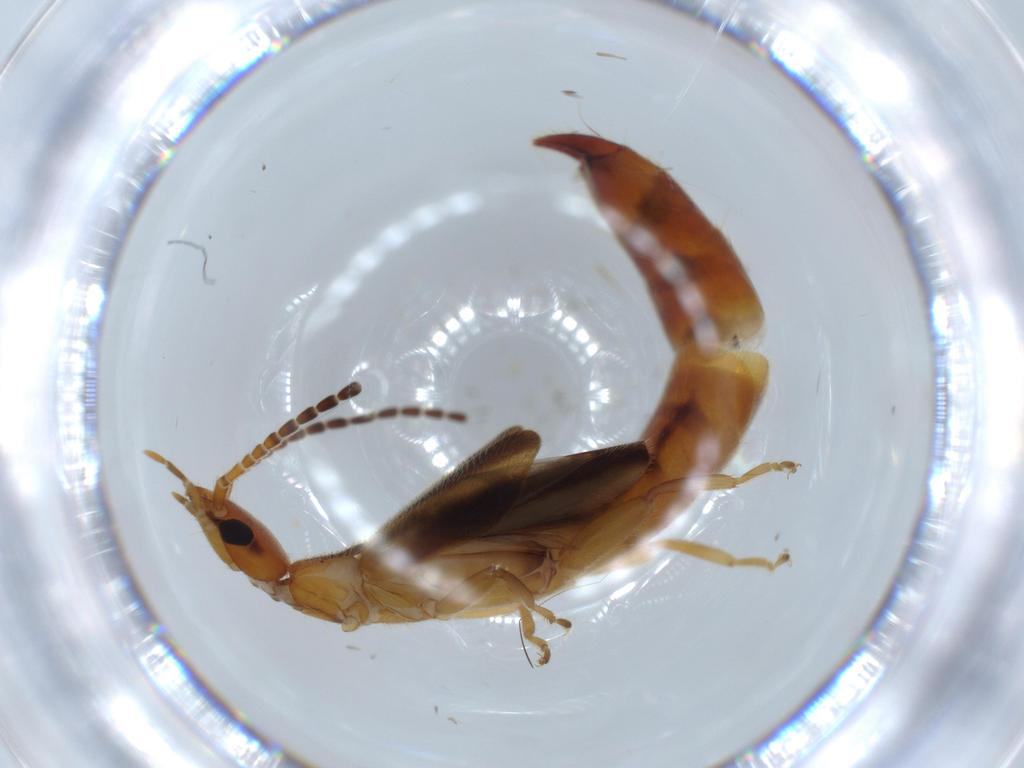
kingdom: Animalia
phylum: Arthropoda
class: Insecta
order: Dermaptera
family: Forficulidae
